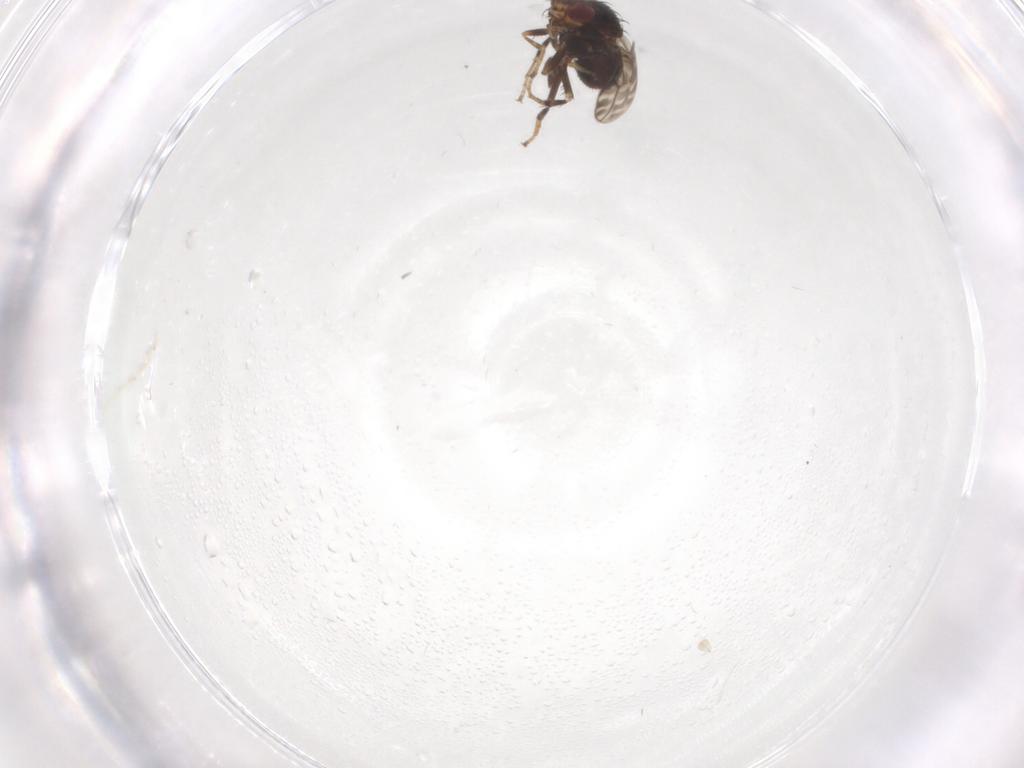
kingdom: Animalia
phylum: Arthropoda
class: Insecta
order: Diptera
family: Sphaeroceridae
